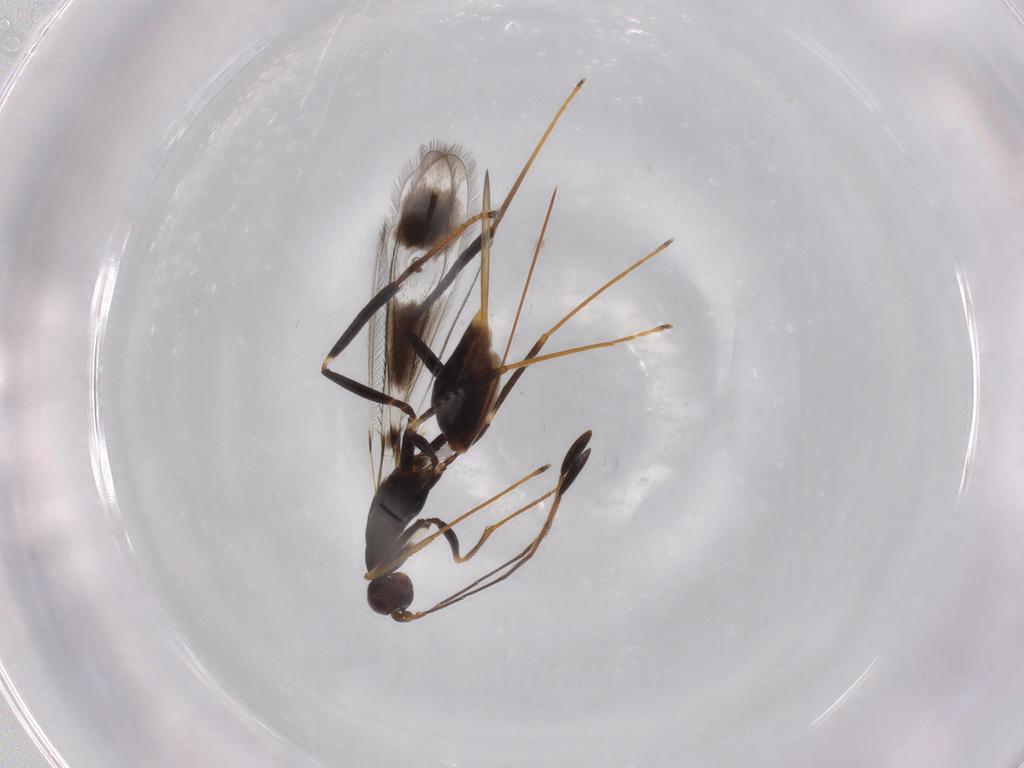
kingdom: Animalia
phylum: Arthropoda
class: Insecta
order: Hymenoptera
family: Mymaridae
